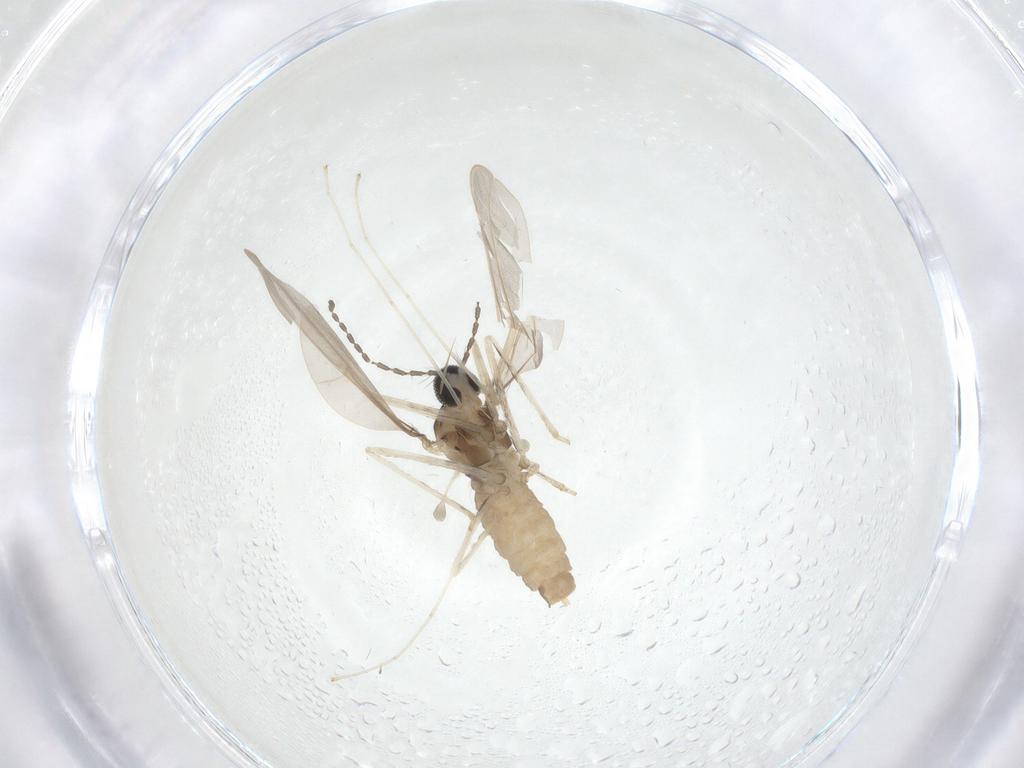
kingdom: Animalia
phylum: Arthropoda
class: Insecta
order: Diptera
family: Cecidomyiidae
